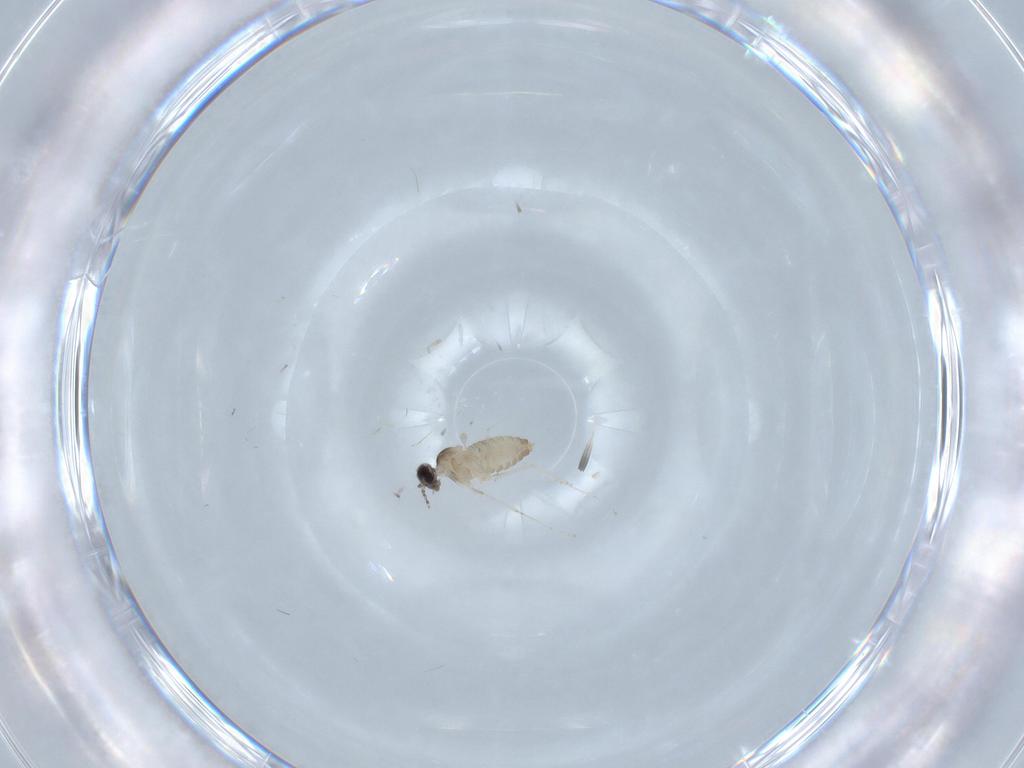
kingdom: Animalia
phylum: Arthropoda
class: Insecta
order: Diptera
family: Cecidomyiidae
